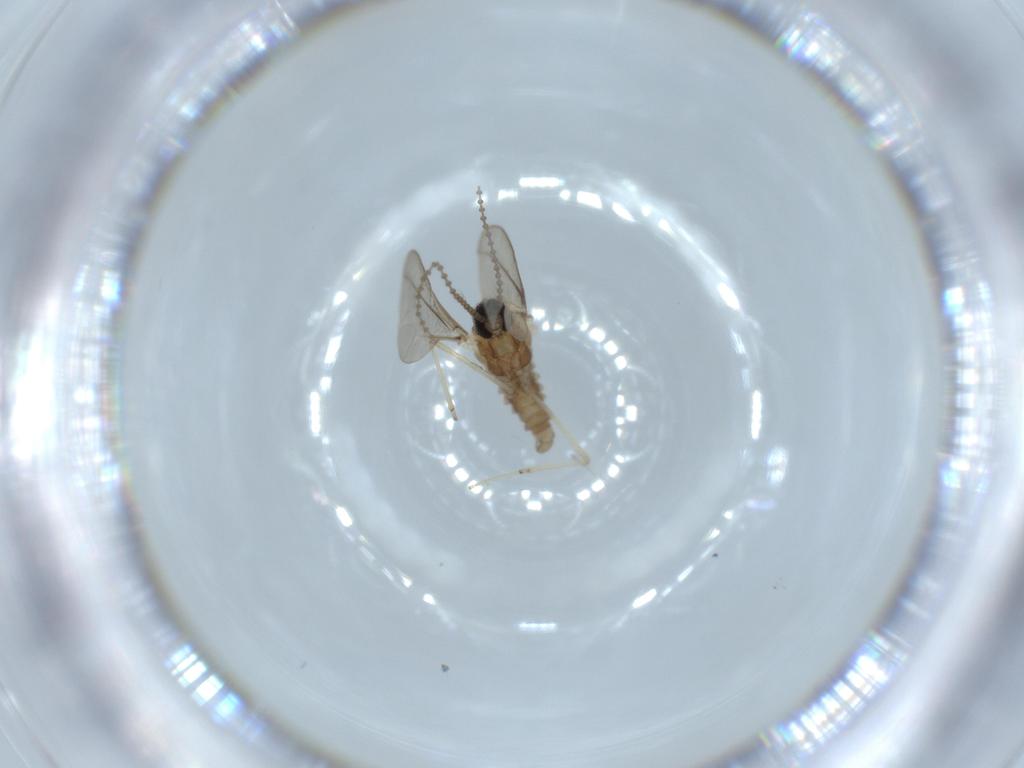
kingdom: Animalia
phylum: Arthropoda
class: Insecta
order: Diptera
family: Cecidomyiidae
